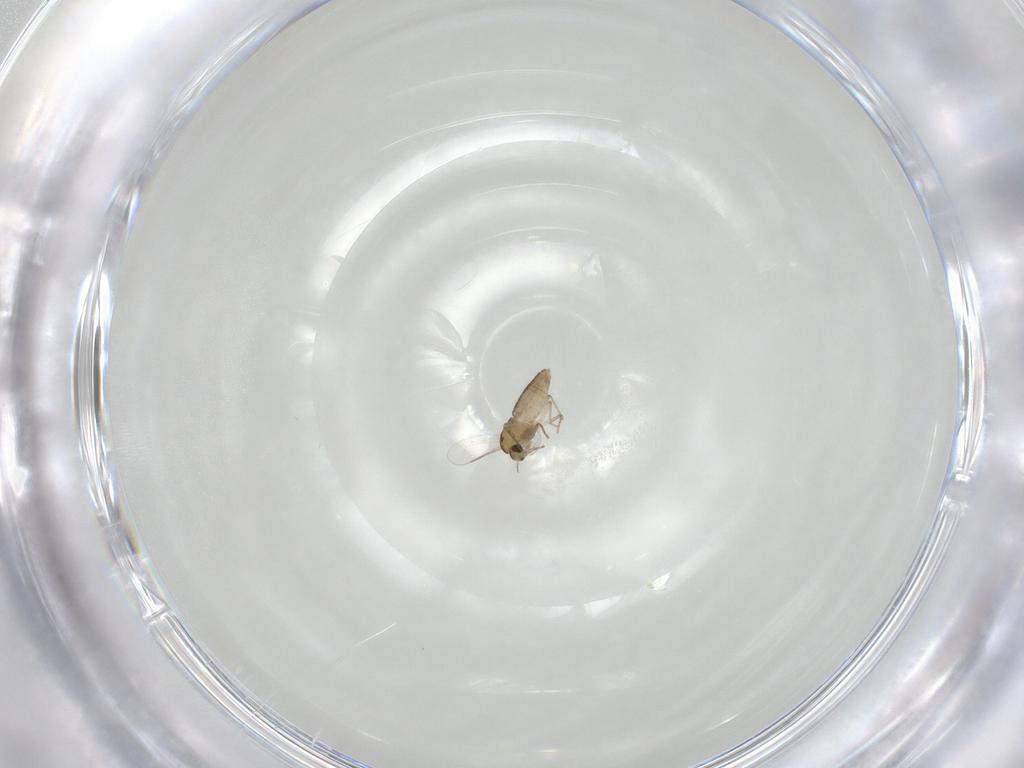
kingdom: Animalia
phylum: Arthropoda
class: Insecta
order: Diptera
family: Chironomidae
